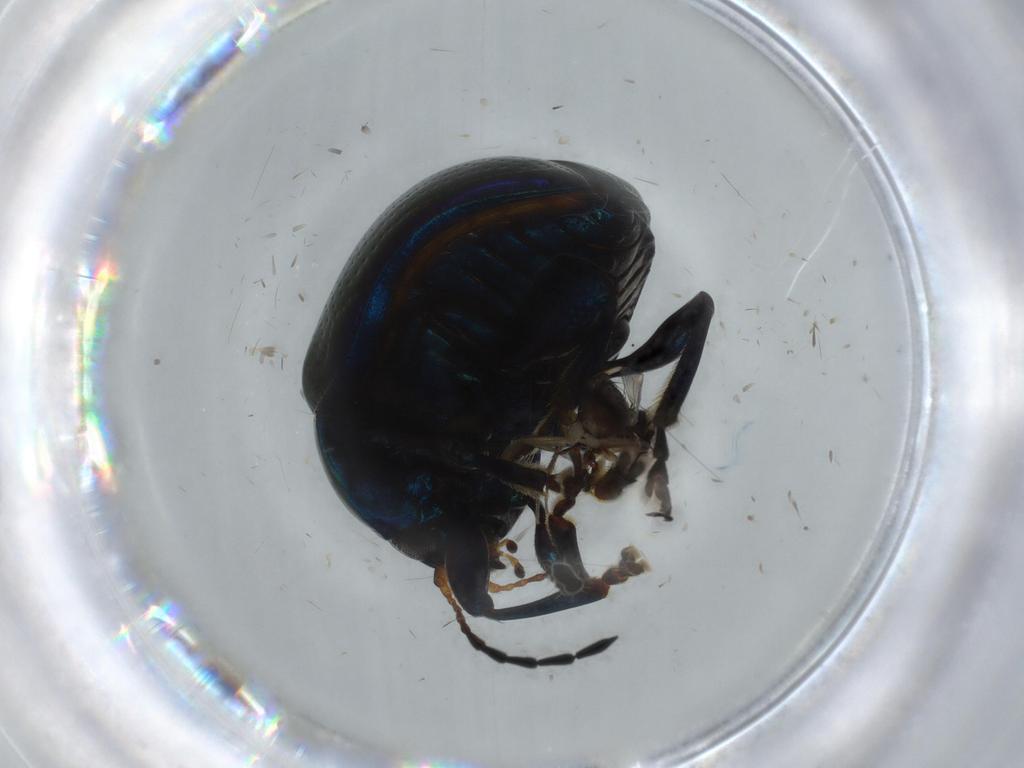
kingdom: Animalia
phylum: Arthropoda
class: Insecta
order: Coleoptera
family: Chrysomelidae
